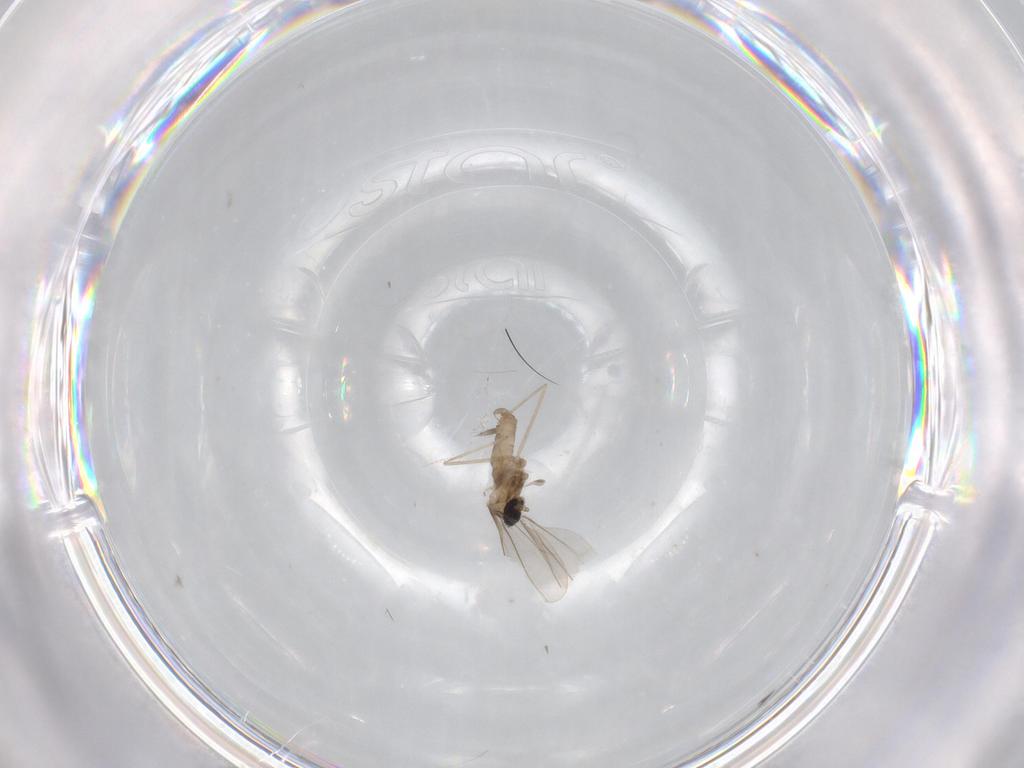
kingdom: Animalia
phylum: Arthropoda
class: Insecta
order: Diptera
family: Cecidomyiidae
